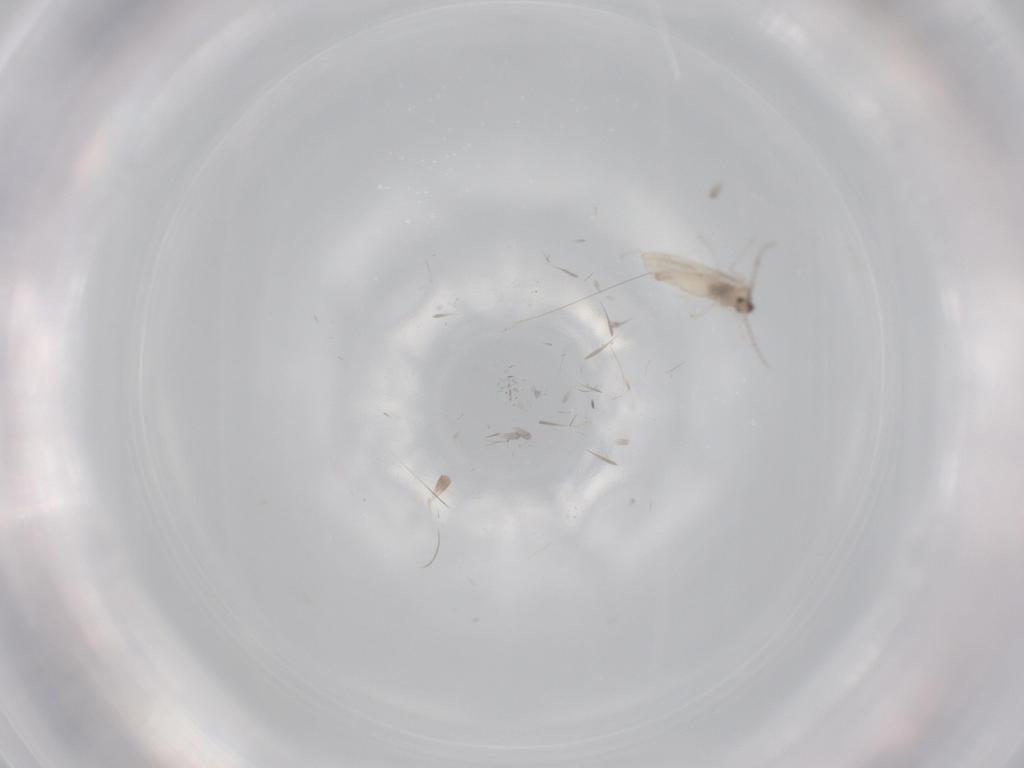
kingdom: Animalia
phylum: Arthropoda
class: Insecta
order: Diptera
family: Cecidomyiidae
